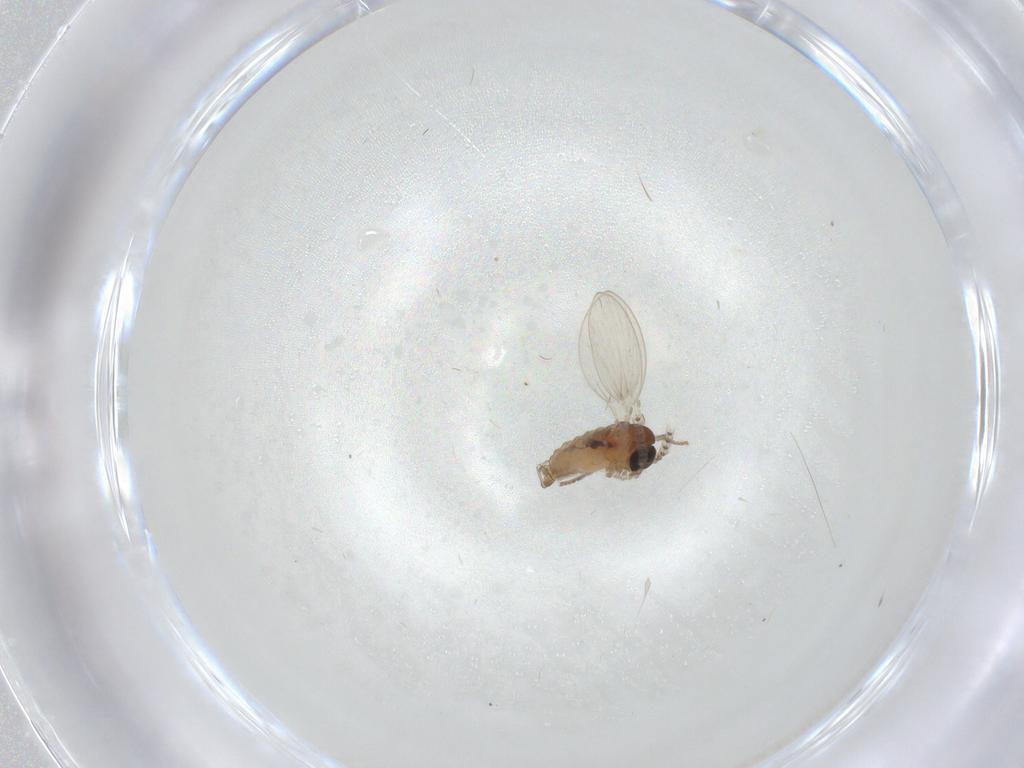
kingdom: Animalia
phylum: Arthropoda
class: Insecta
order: Diptera
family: Psychodidae
